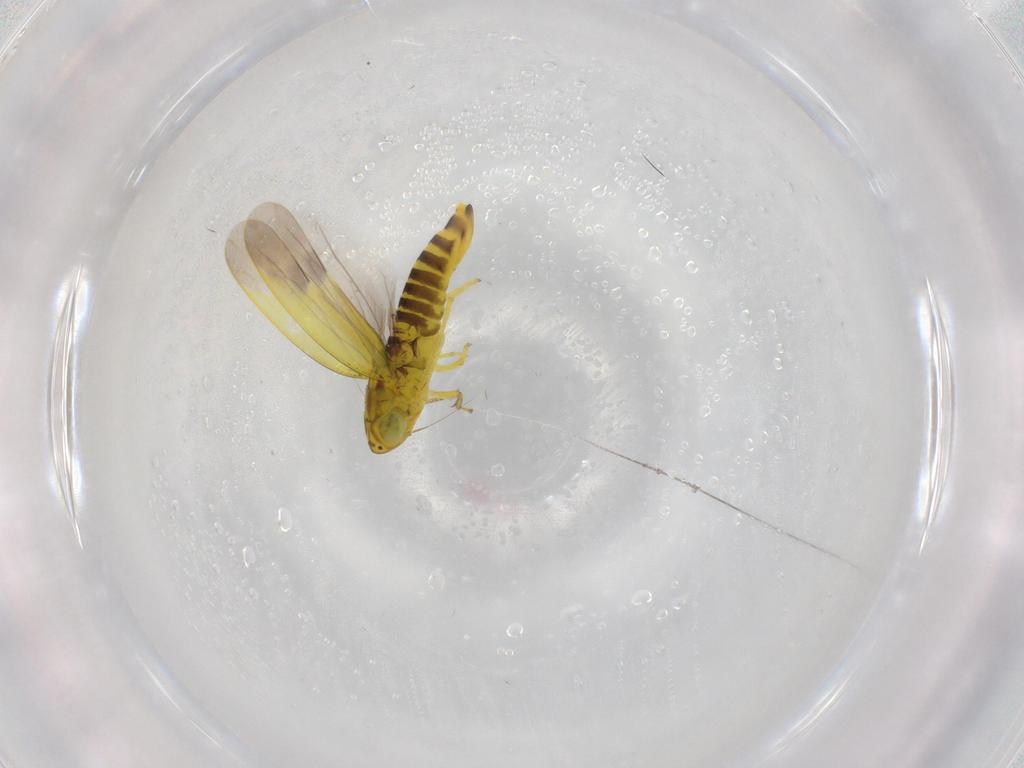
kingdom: Animalia
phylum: Arthropoda
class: Insecta
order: Hemiptera
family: Cicadellidae
